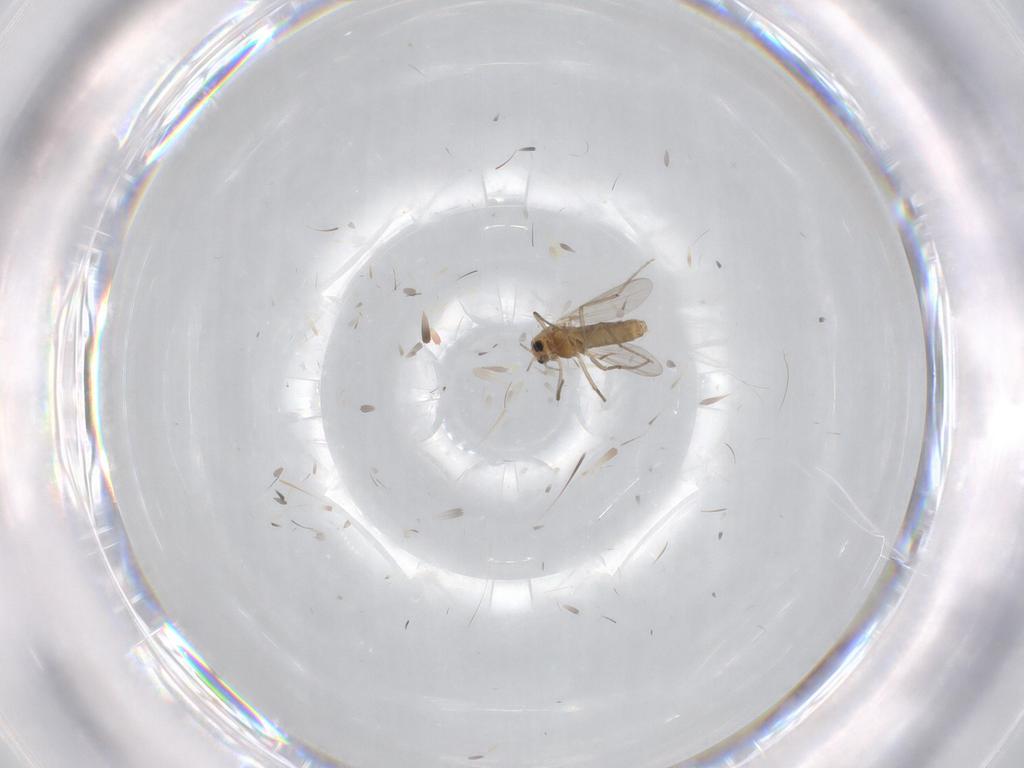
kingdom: Animalia
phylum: Arthropoda
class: Insecta
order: Diptera
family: Chironomidae
